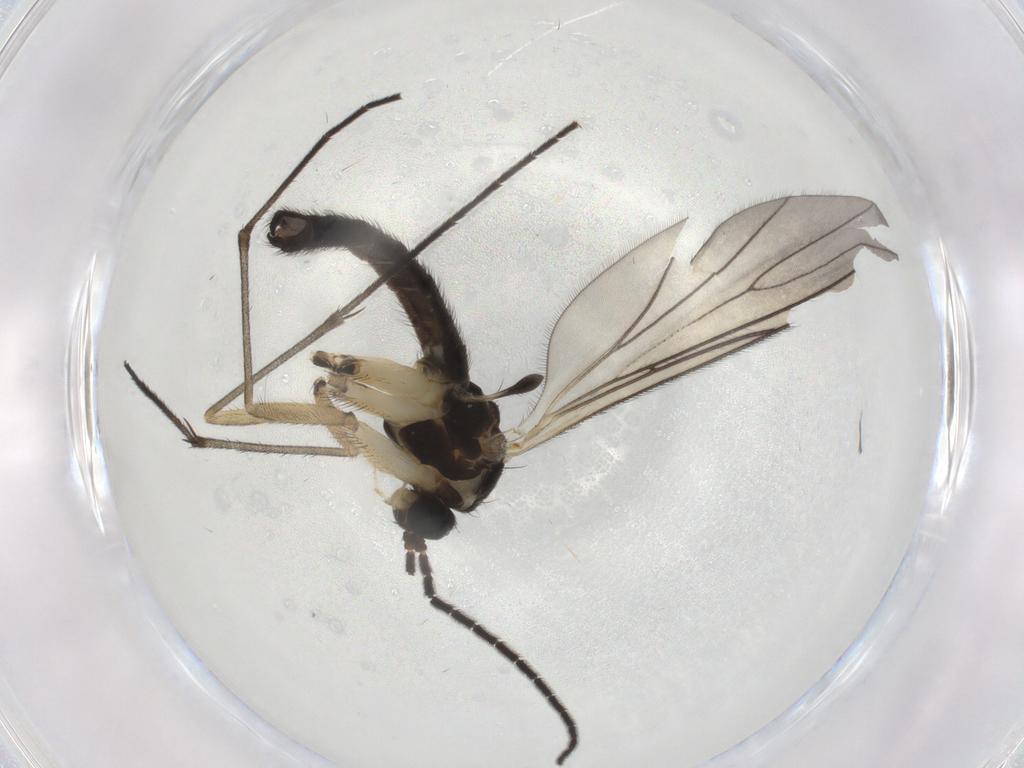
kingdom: Animalia
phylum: Arthropoda
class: Insecta
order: Diptera
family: Sciaridae
